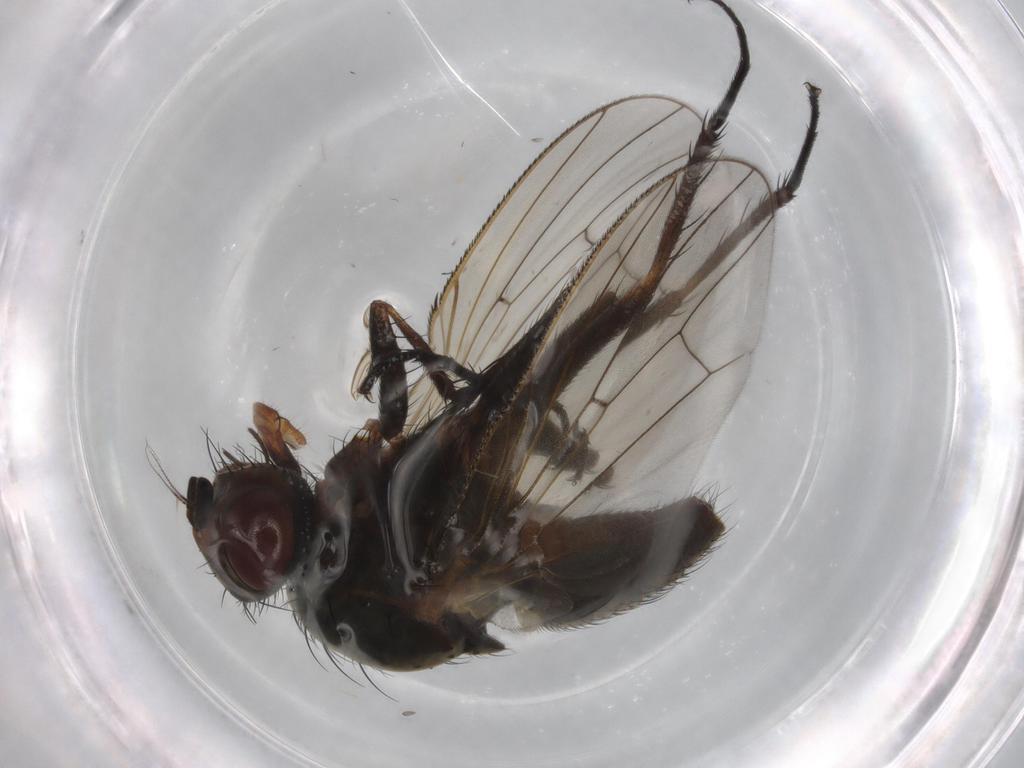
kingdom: Animalia
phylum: Arthropoda
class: Insecta
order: Diptera
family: Anthomyiidae
